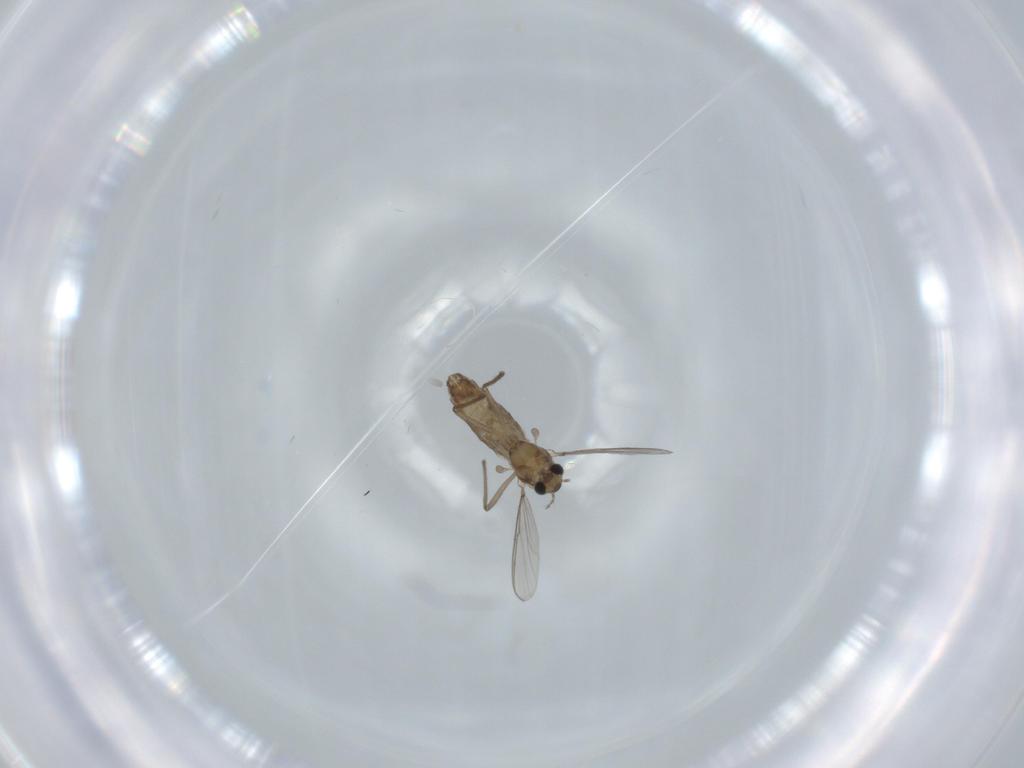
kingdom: Animalia
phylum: Arthropoda
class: Insecta
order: Diptera
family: Chironomidae
